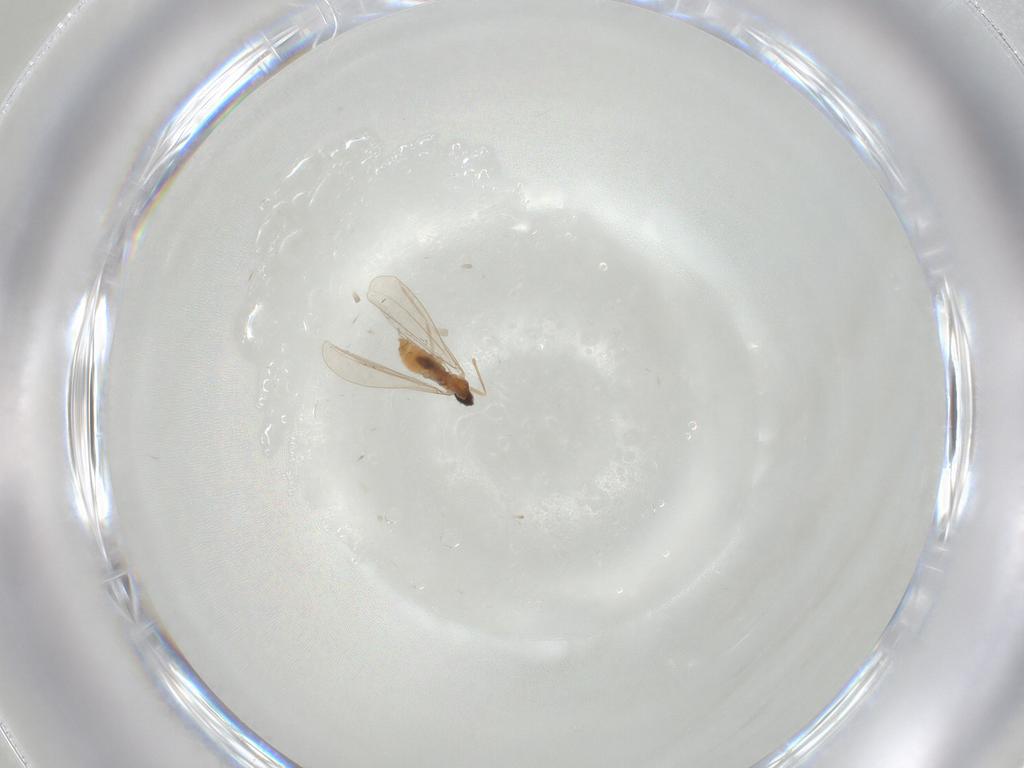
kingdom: Animalia
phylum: Arthropoda
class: Insecta
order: Diptera
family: Cecidomyiidae
